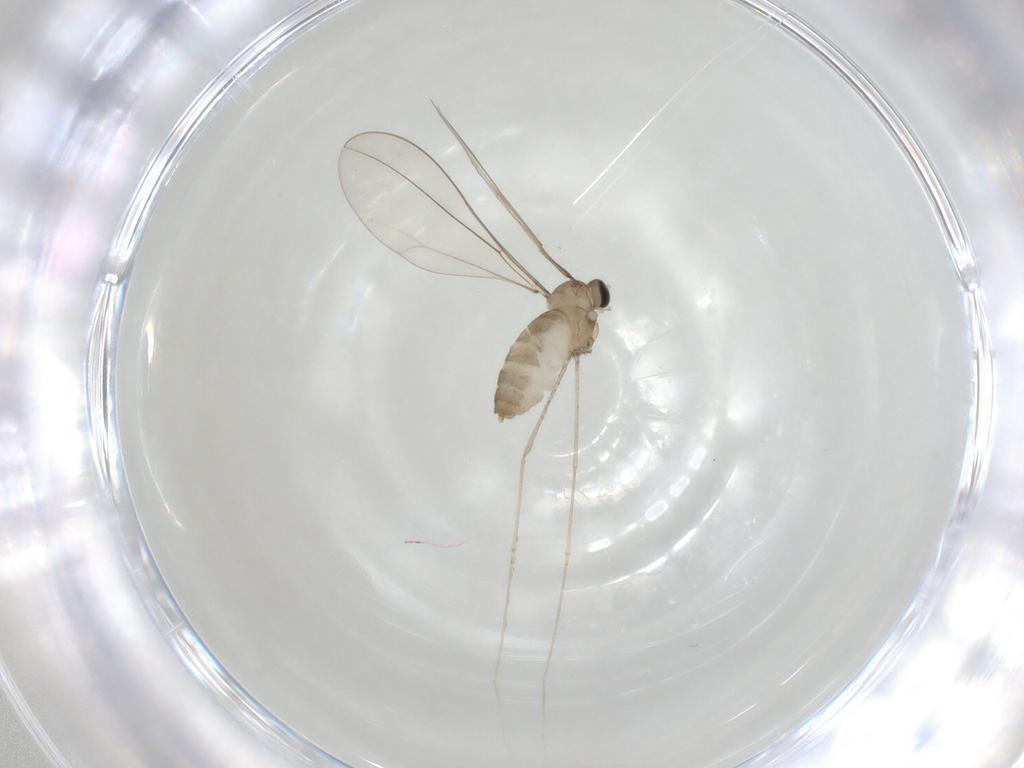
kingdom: Animalia
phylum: Arthropoda
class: Insecta
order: Diptera
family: Cecidomyiidae
